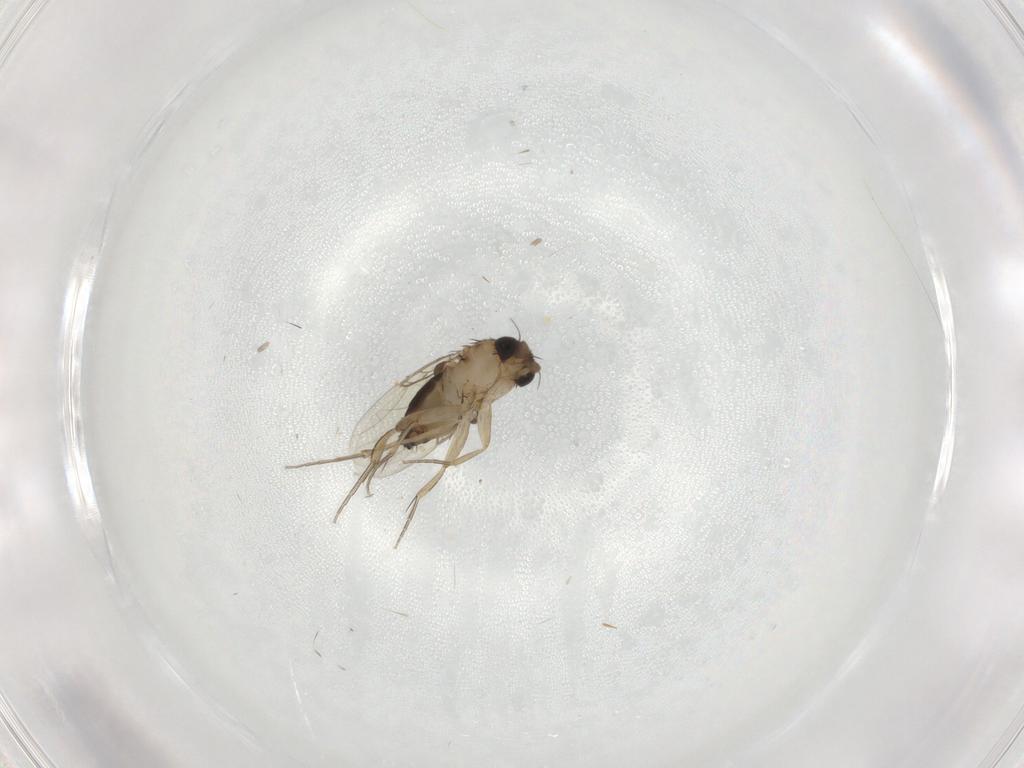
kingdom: Animalia
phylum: Arthropoda
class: Insecta
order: Diptera
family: Phoridae
